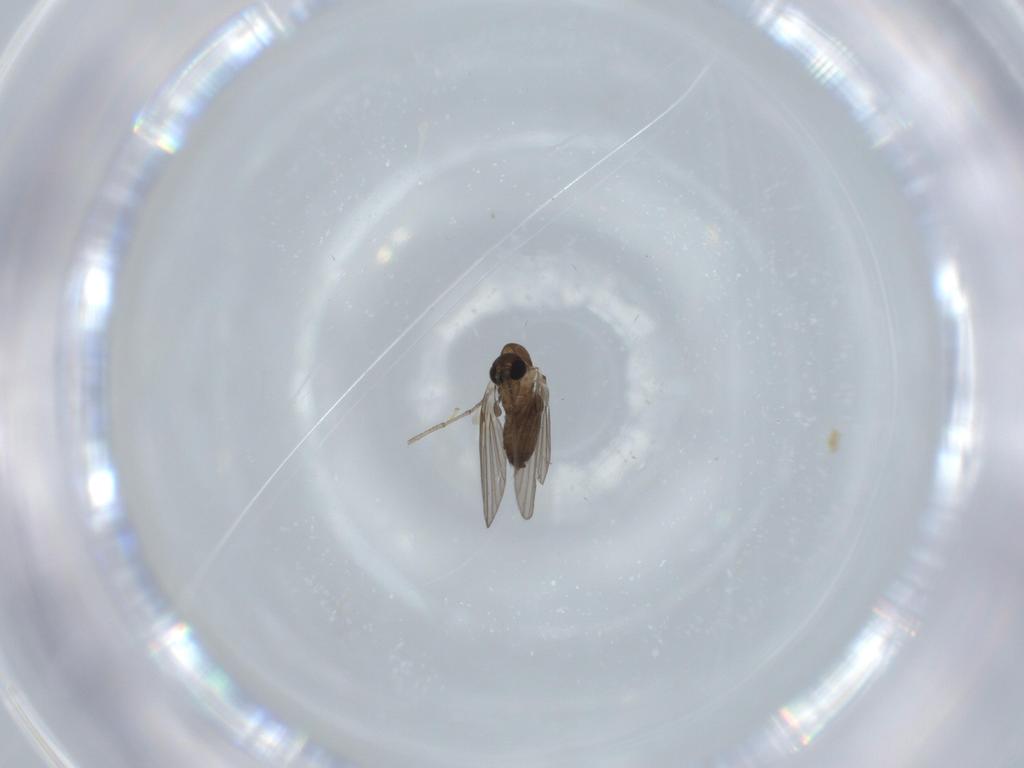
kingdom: Animalia
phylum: Arthropoda
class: Insecta
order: Diptera
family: Psychodidae
